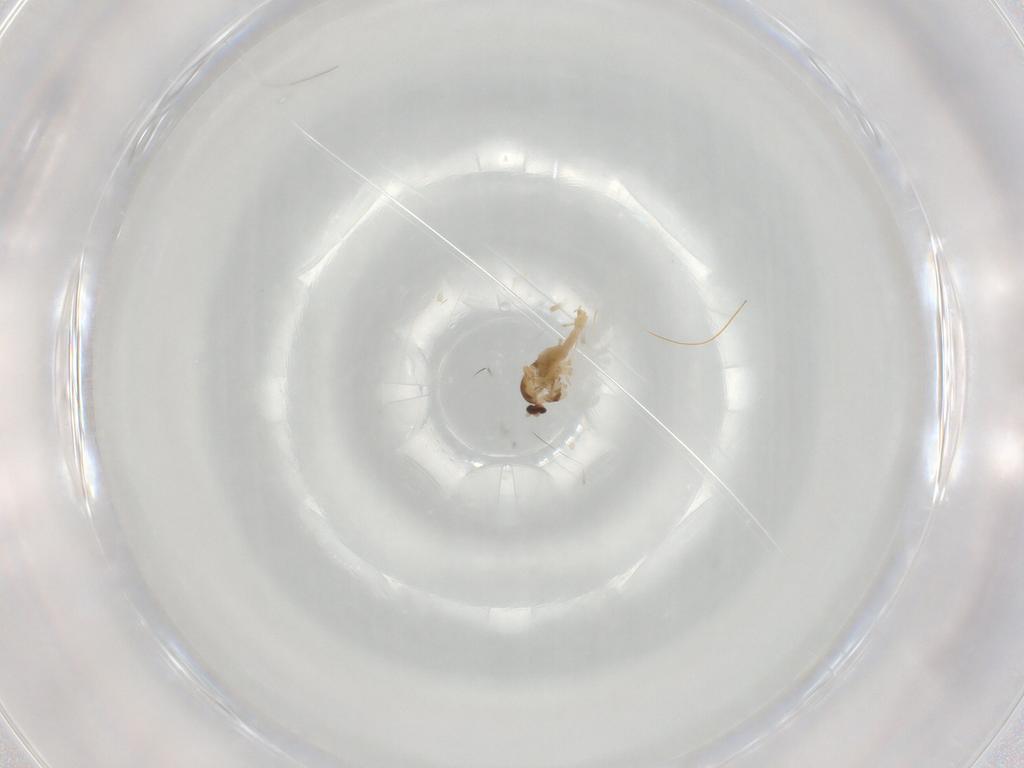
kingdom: Animalia
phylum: Arthropoda
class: Insecta
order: Diptera
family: Cecidomyiidae
